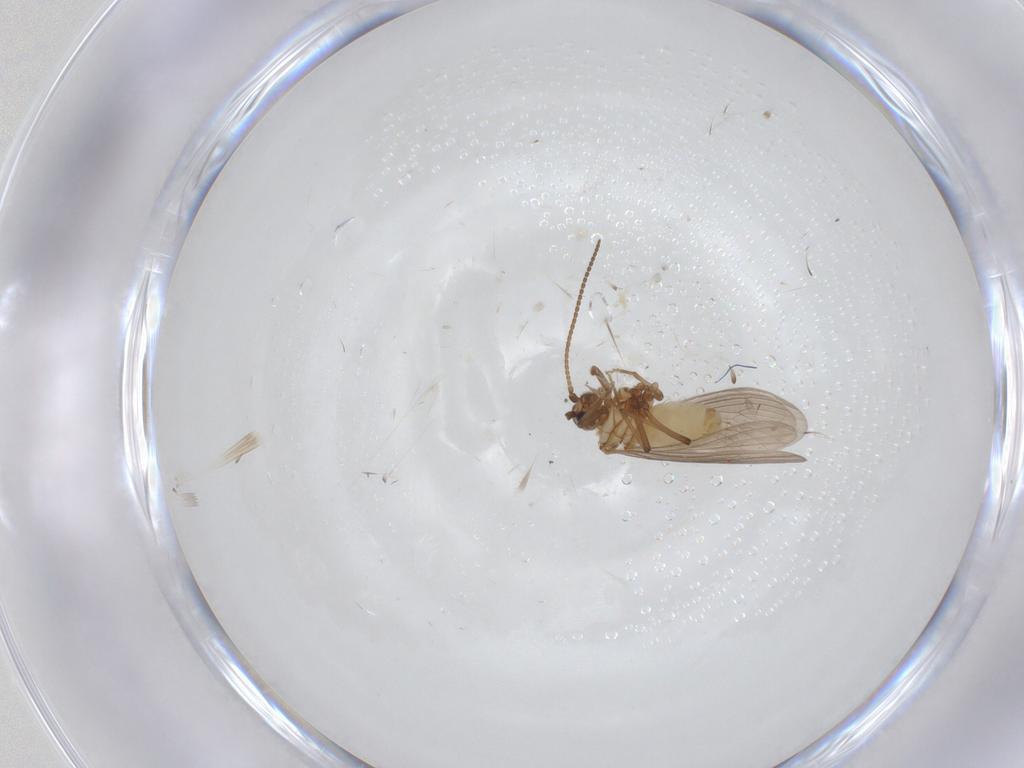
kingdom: Animalia
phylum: Arthropoda
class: Insecta
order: Neuroptera
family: Coniopterygidae
